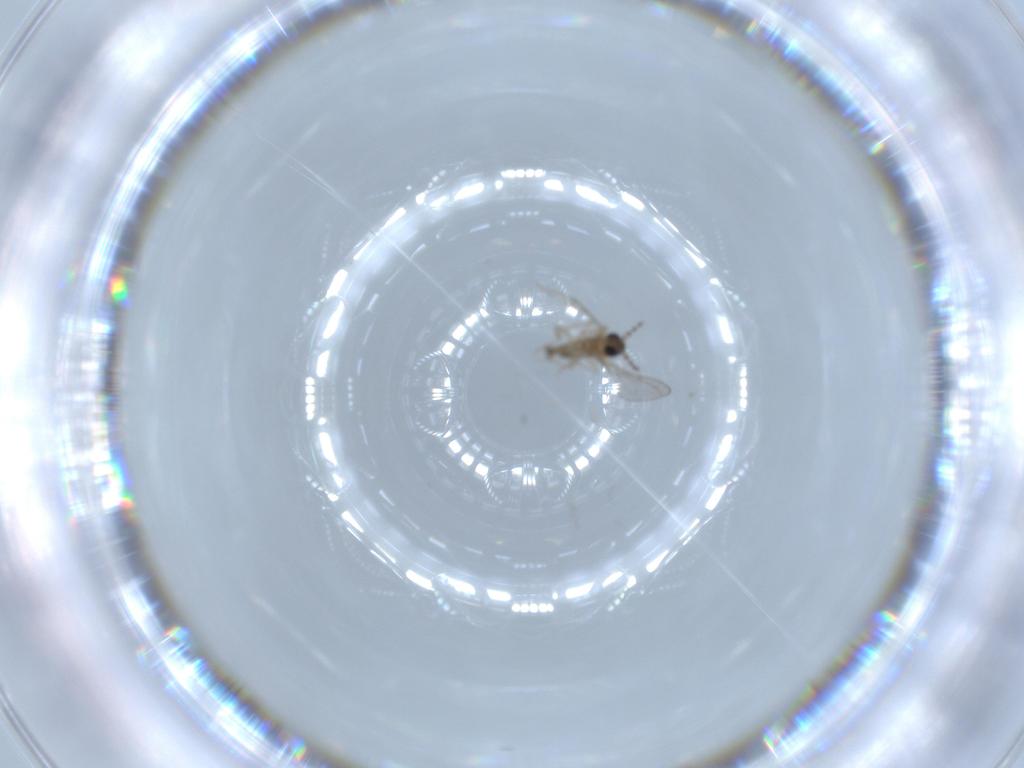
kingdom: Animalia
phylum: Arthropoda
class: Insecta
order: Diptera
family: Cecidomyiidae
